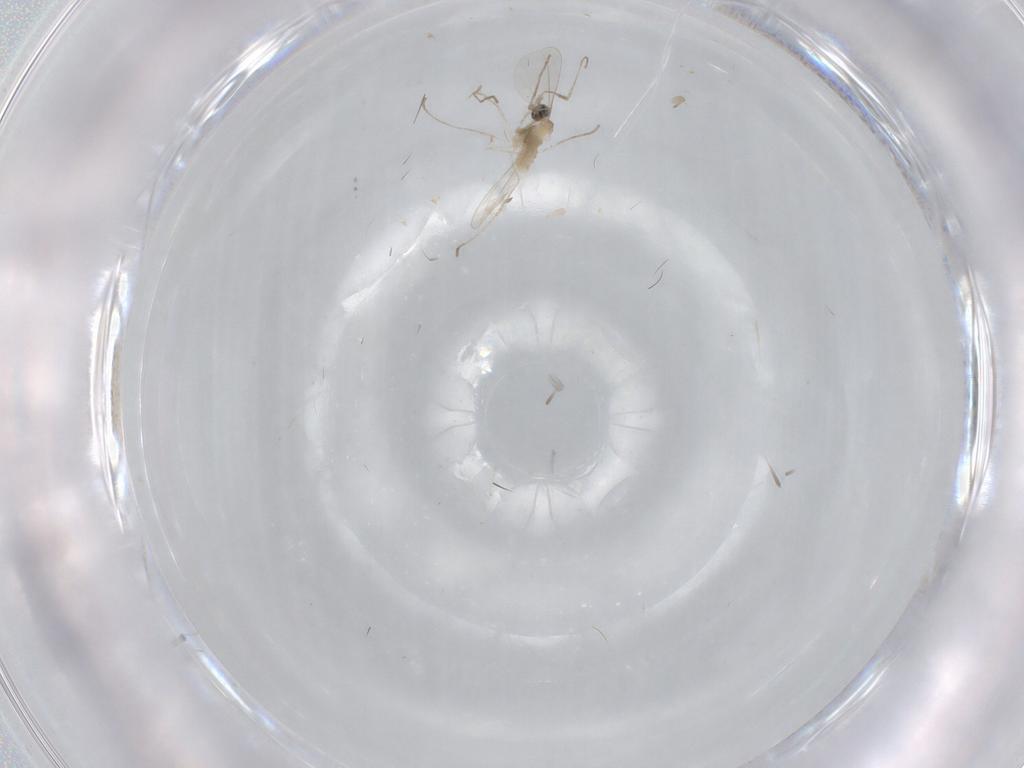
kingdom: Animalia
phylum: Arthropoda
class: Insecta
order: Diptera
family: Cecidomyiidae
